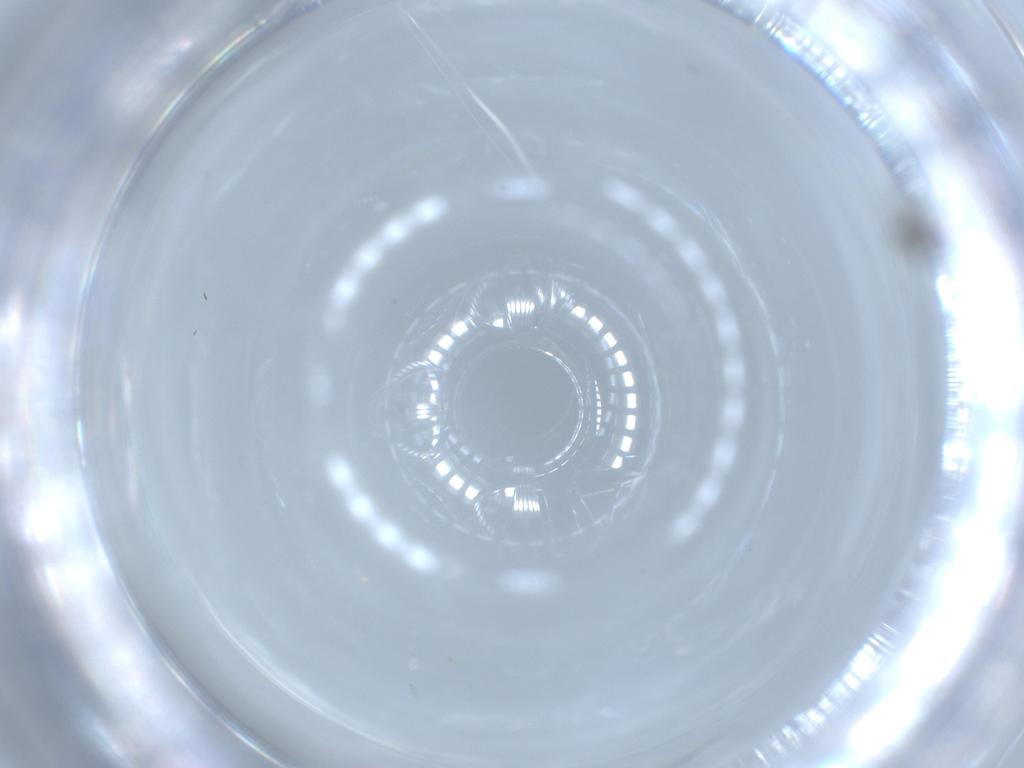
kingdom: Animalia
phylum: Arthropoda
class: Insecta
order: Diptera
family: Cecidomyiidae
